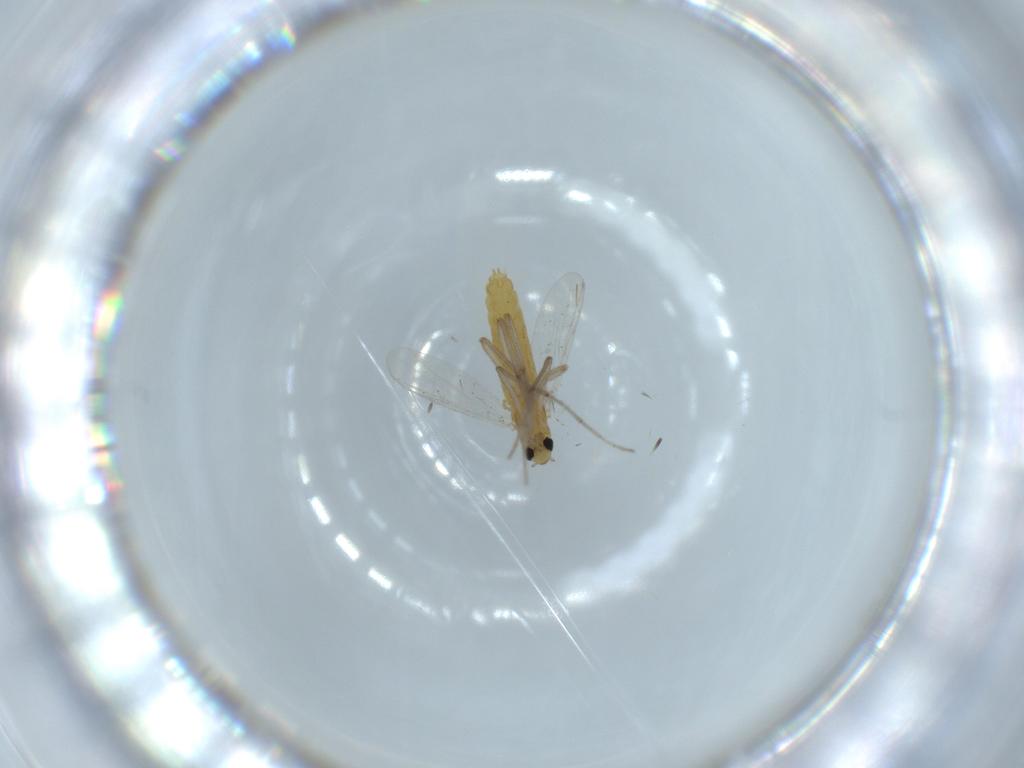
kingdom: Animalia
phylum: Arthropoda
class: Insecta
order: Diptera
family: Chironomidae
